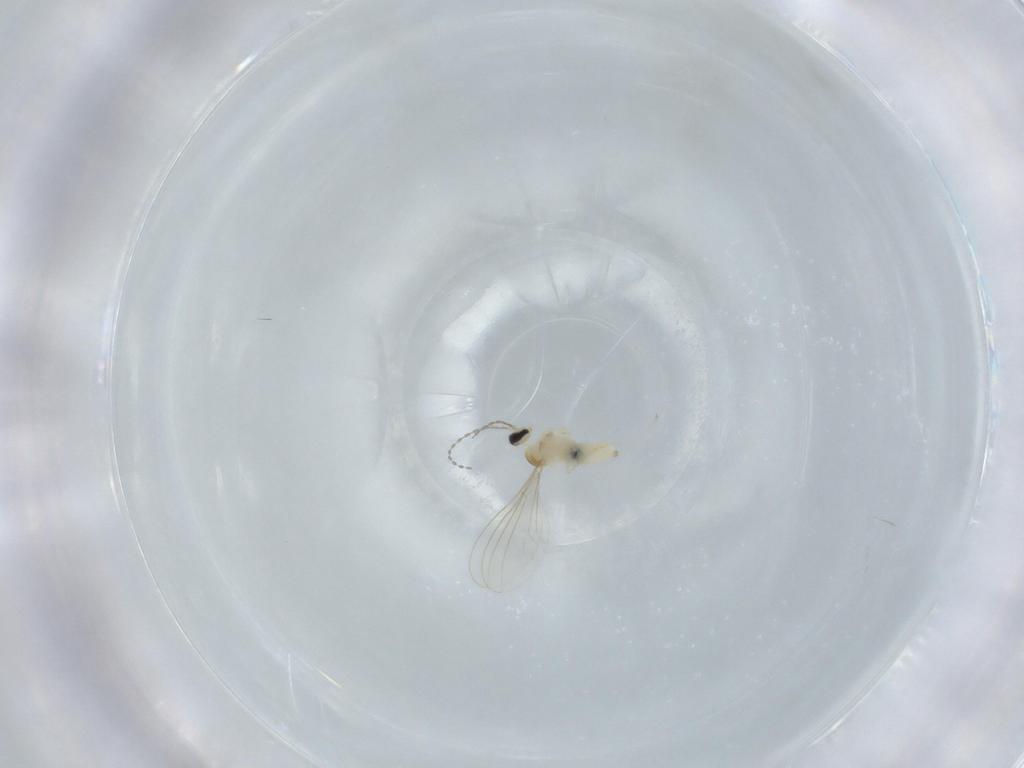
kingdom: Animalia
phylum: Arthropoda
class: Insecta
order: Diptera
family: Cecidomyiidae
